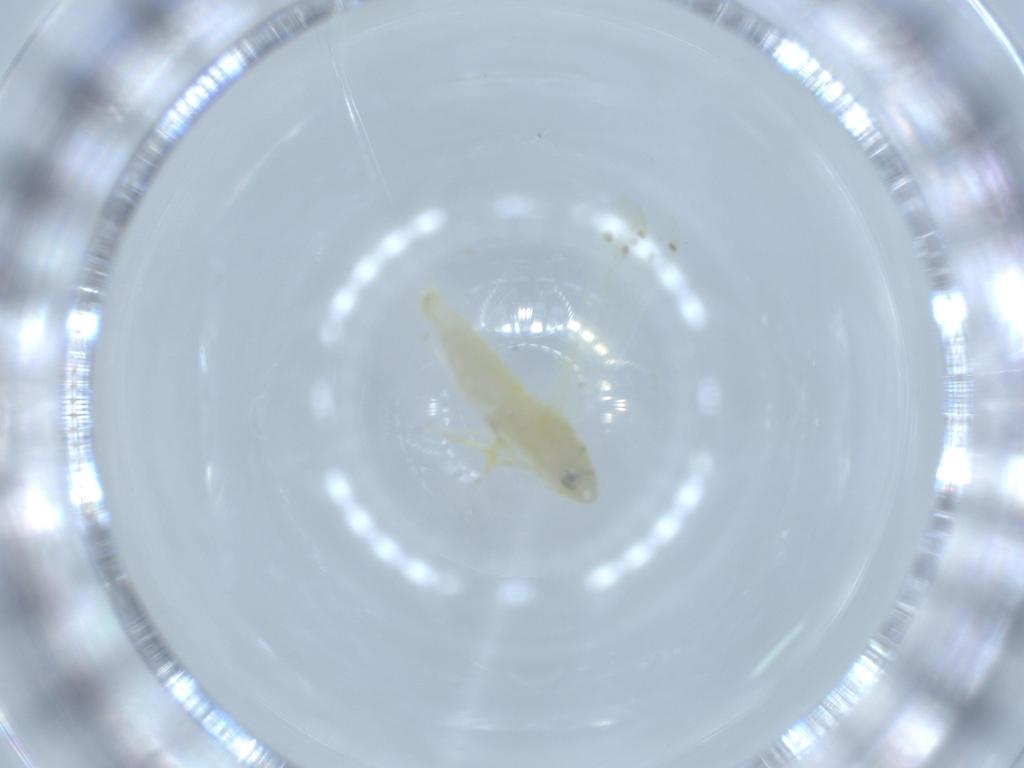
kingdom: Animalia
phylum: Arthropoda
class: Insecta
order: Hemiptera
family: Cicadellidae
